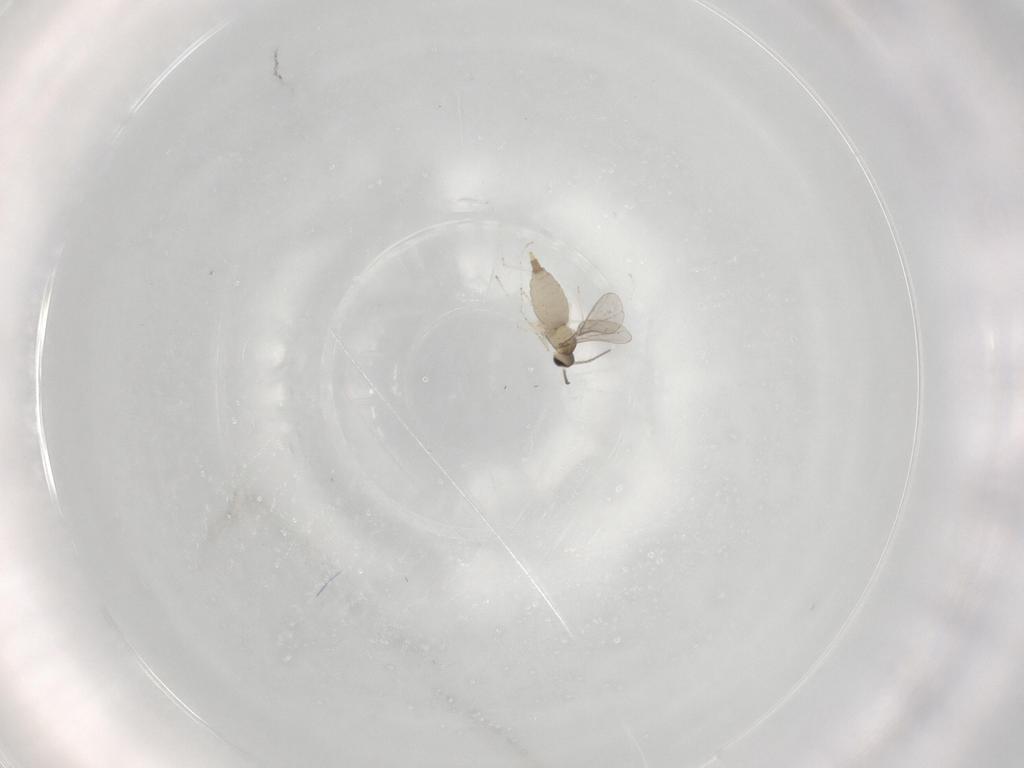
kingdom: Animalia
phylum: Arthropoda
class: Insecta
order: Diptera
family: Cecidomyiidae
